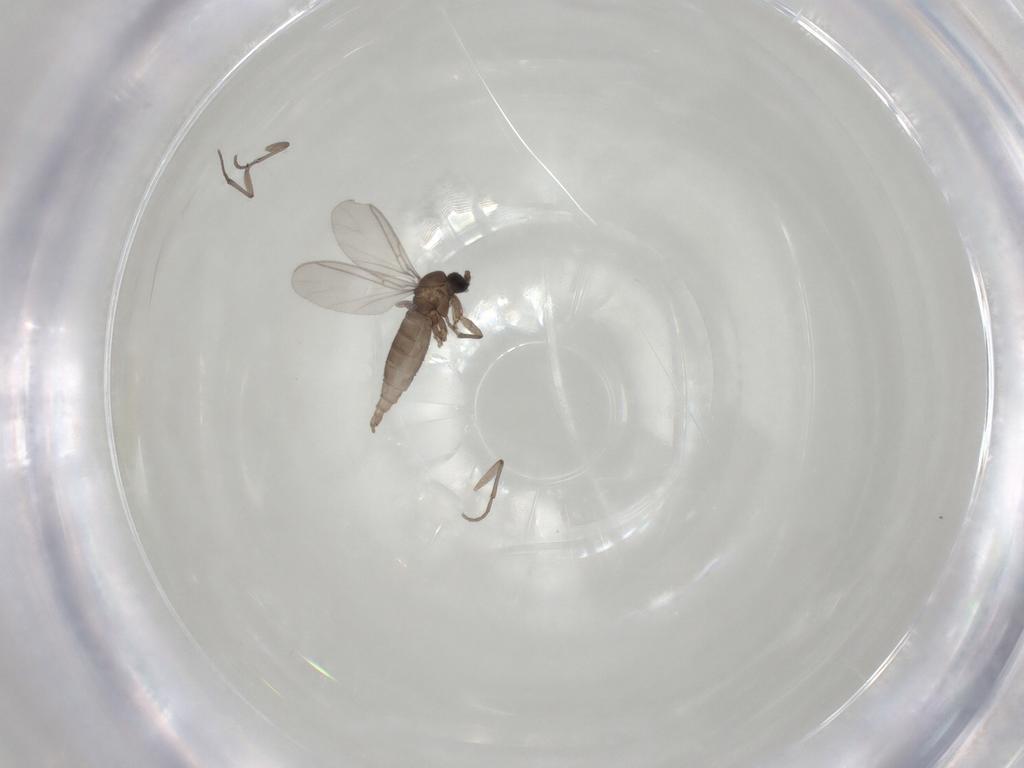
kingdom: Animalia
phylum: Arthropoda
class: Insecta
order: Diptera
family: Sciaridae
